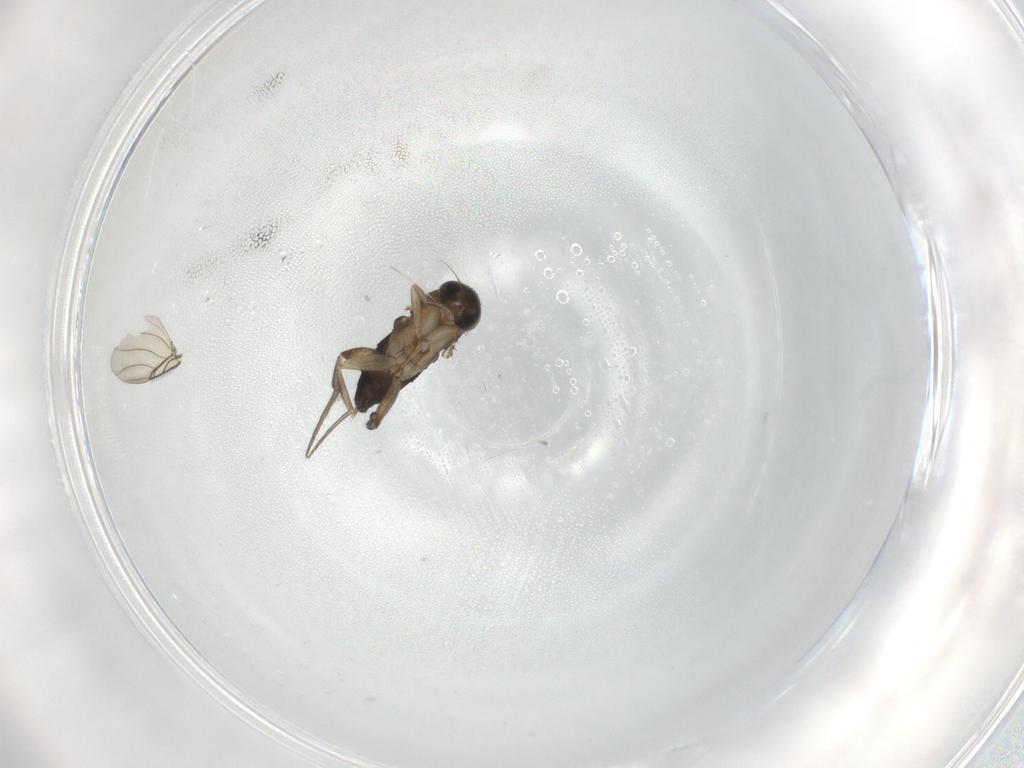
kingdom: Animalia
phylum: Arthropoda
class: Insecta
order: Diptera
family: Phoridae
